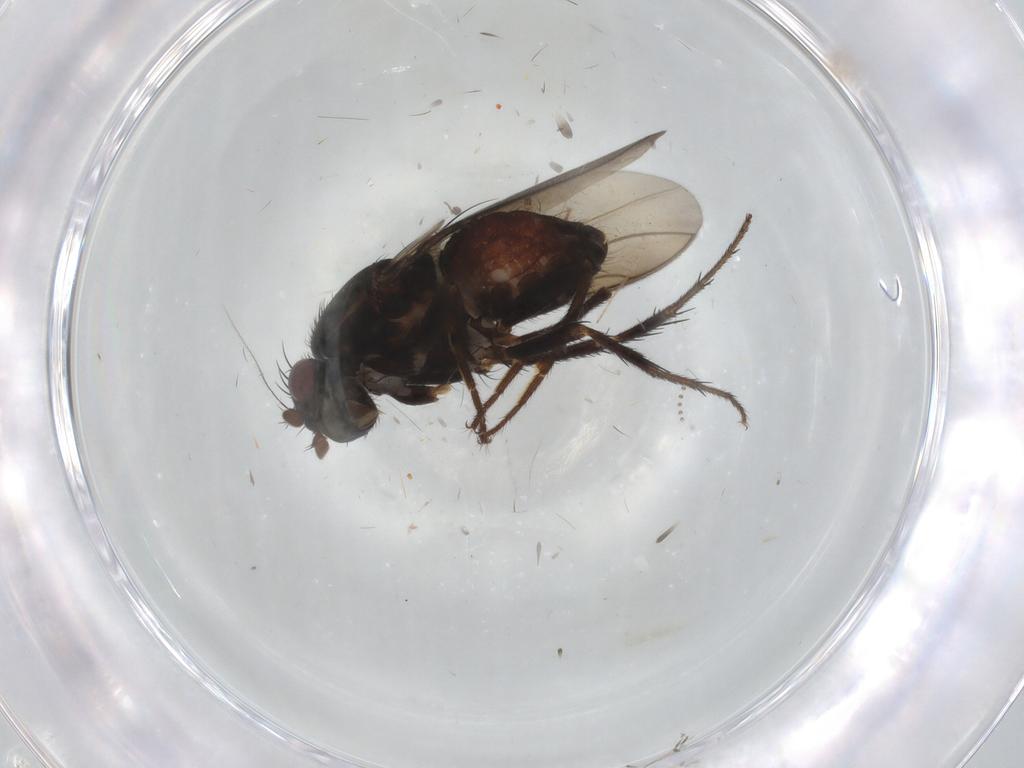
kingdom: Animalia
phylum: Arthropoda
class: Insecta
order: Diptera
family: Sphaeroceridae
